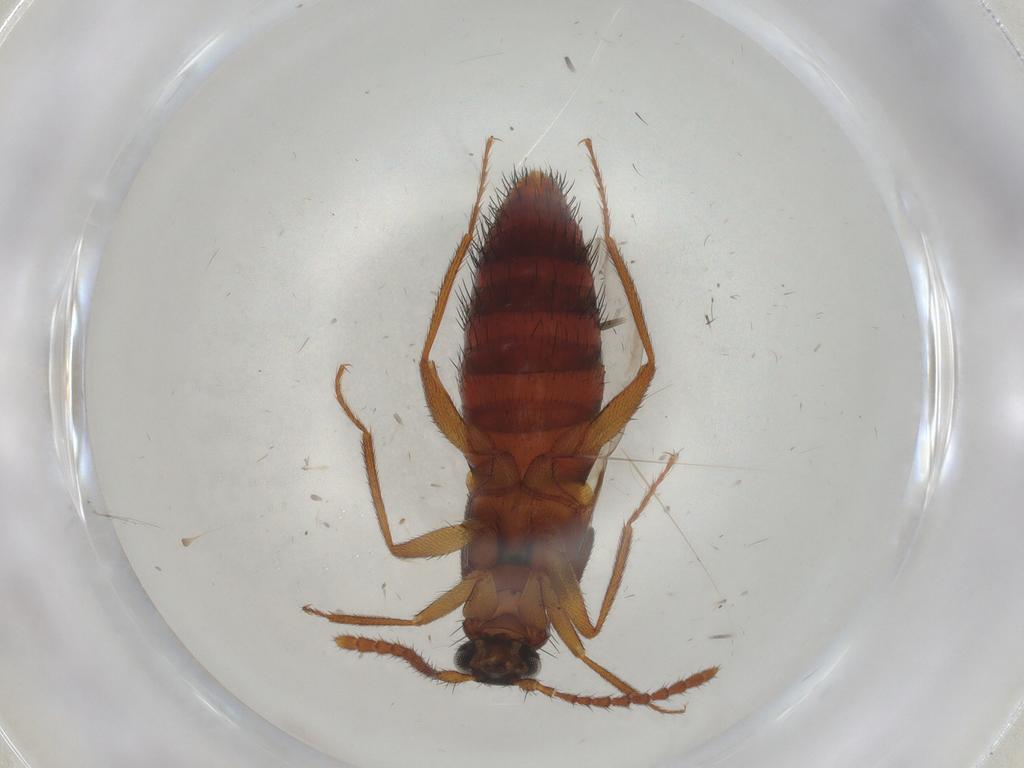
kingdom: Animalia
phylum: Arthropoda
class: Insecta
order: Coleoptera
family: Staphylinidae
